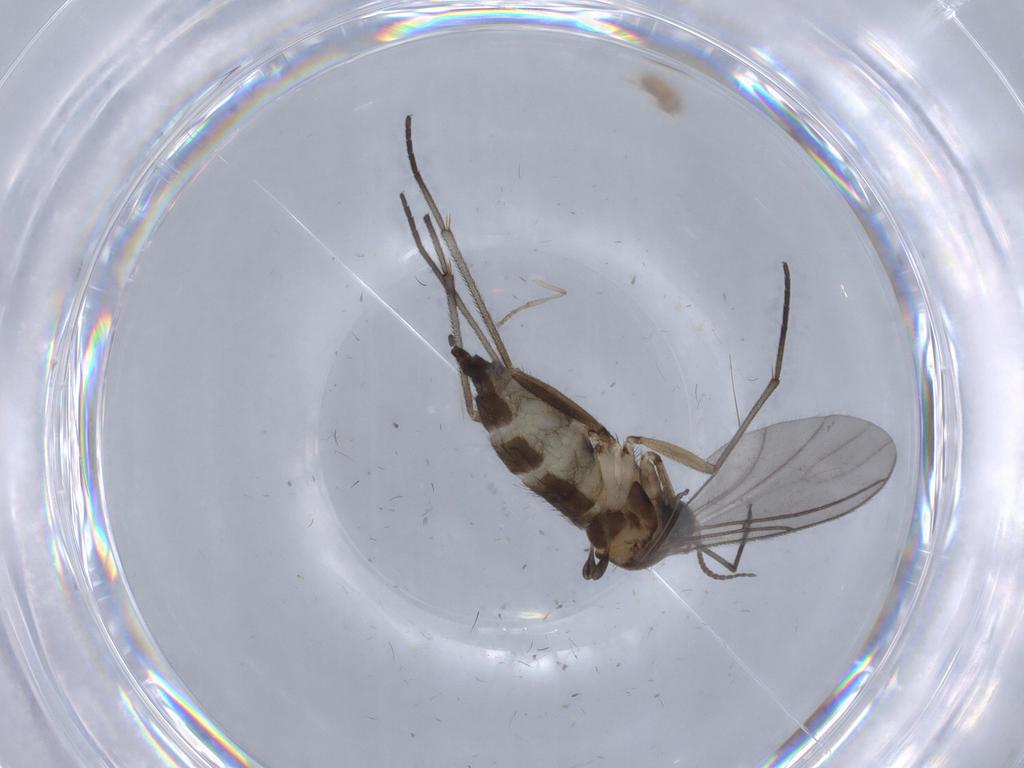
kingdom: Animalia
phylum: Arthropoda
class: Insecta
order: Diptera
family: Sciaridae
